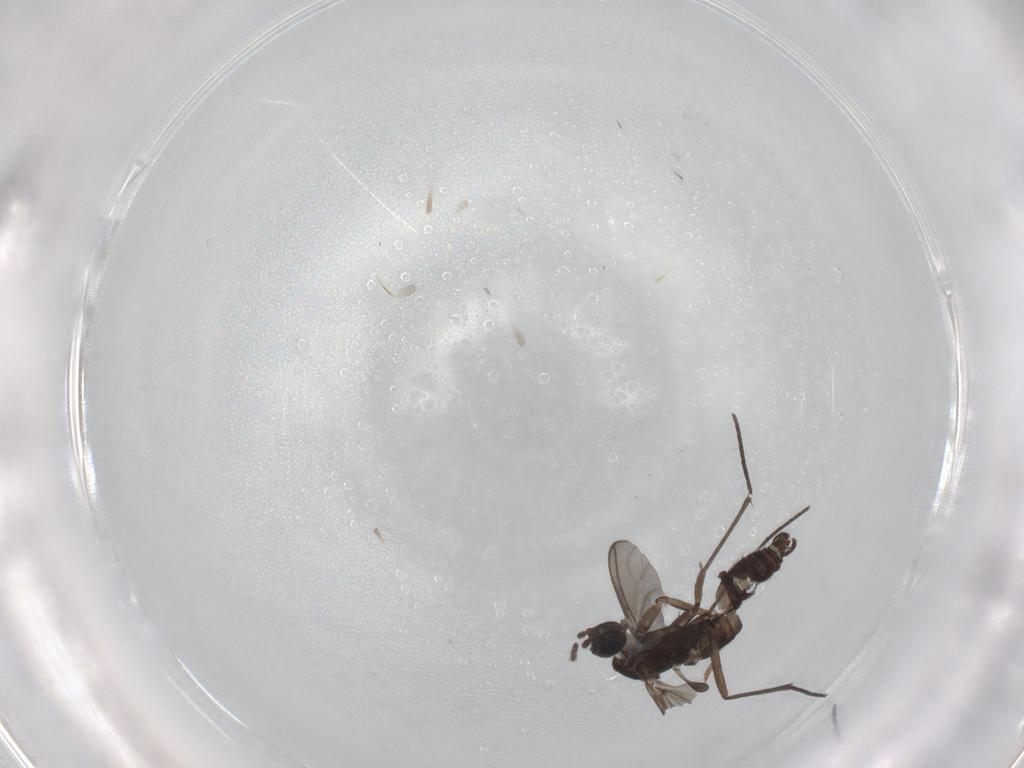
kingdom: Animalia
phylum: Arthropoda
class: Insecta
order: Diptera
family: Sciaridae
